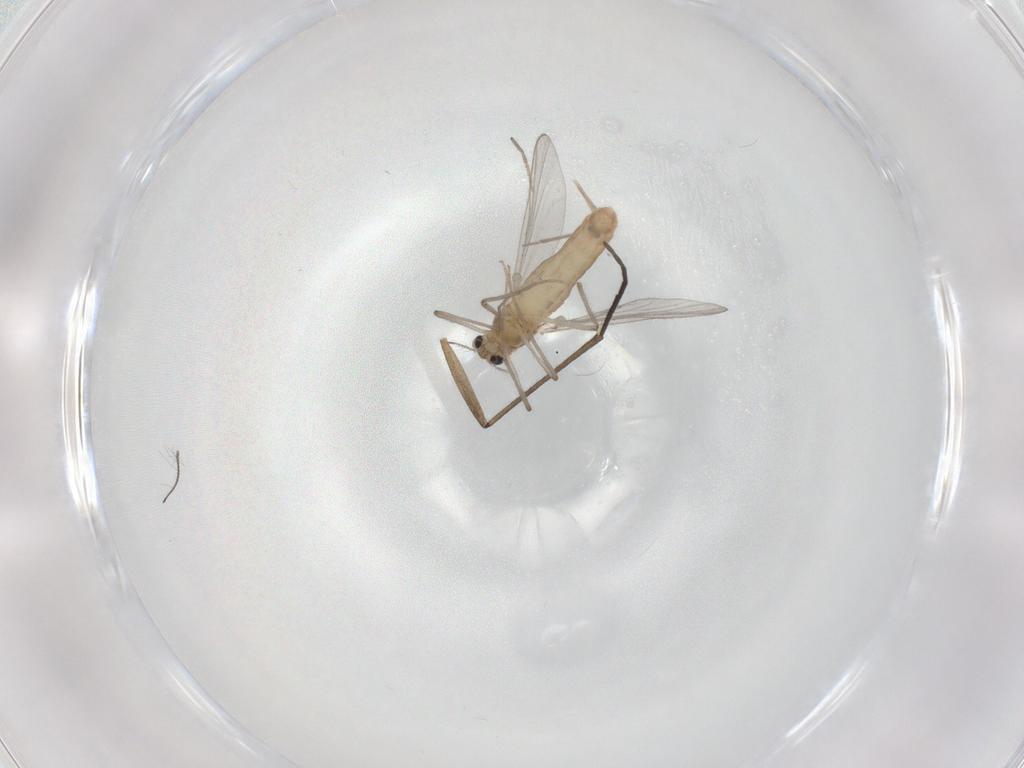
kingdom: Animalia
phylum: Arthropoda
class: Insecta
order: Diptera
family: Chironomidae
